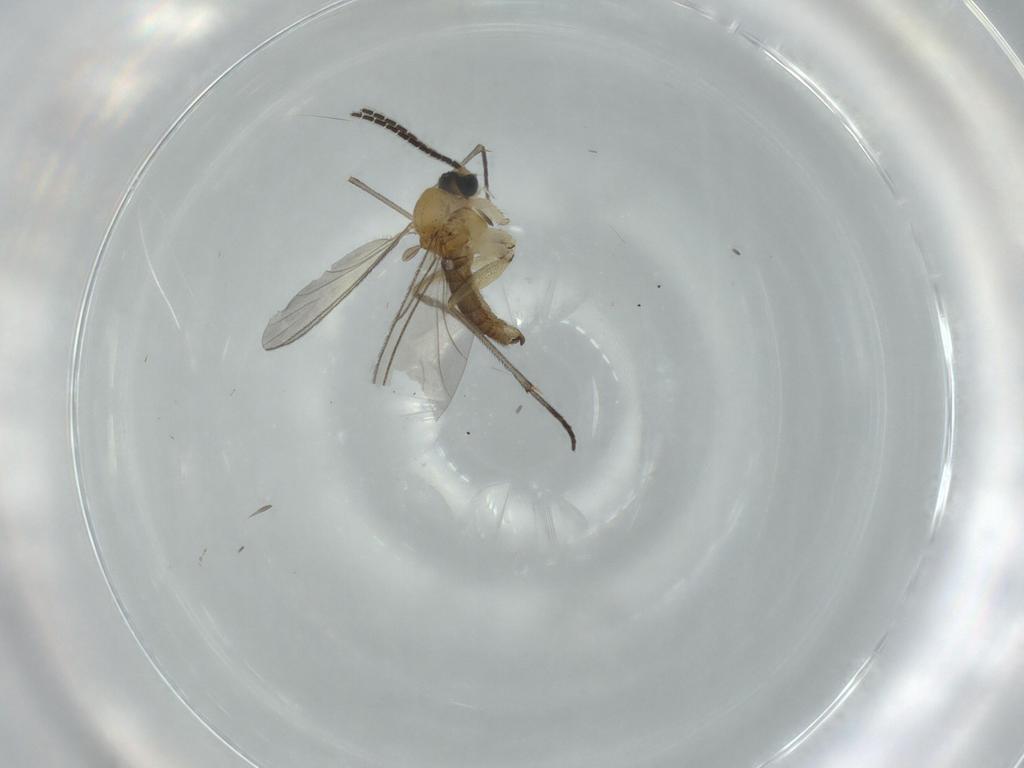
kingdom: Animalia
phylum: Arthropoda
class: Insecta
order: Diptera
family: Sciaridae
